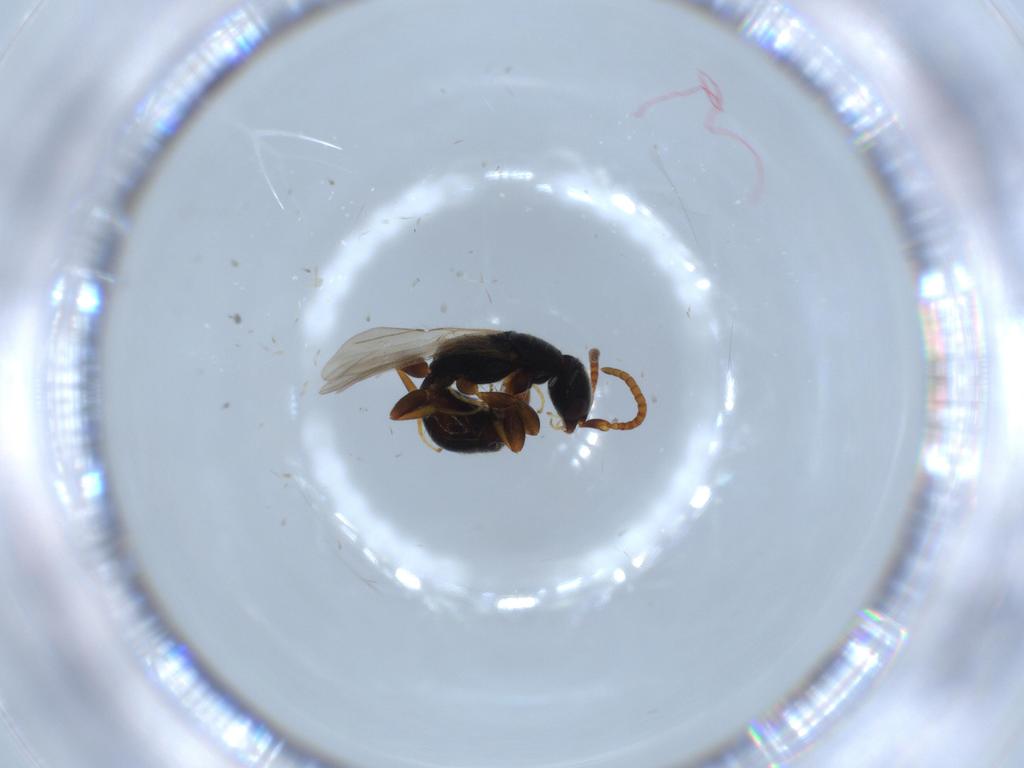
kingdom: Animalia
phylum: Arthropoda
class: Insecta
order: Hymenoptera
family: Bethylidae
